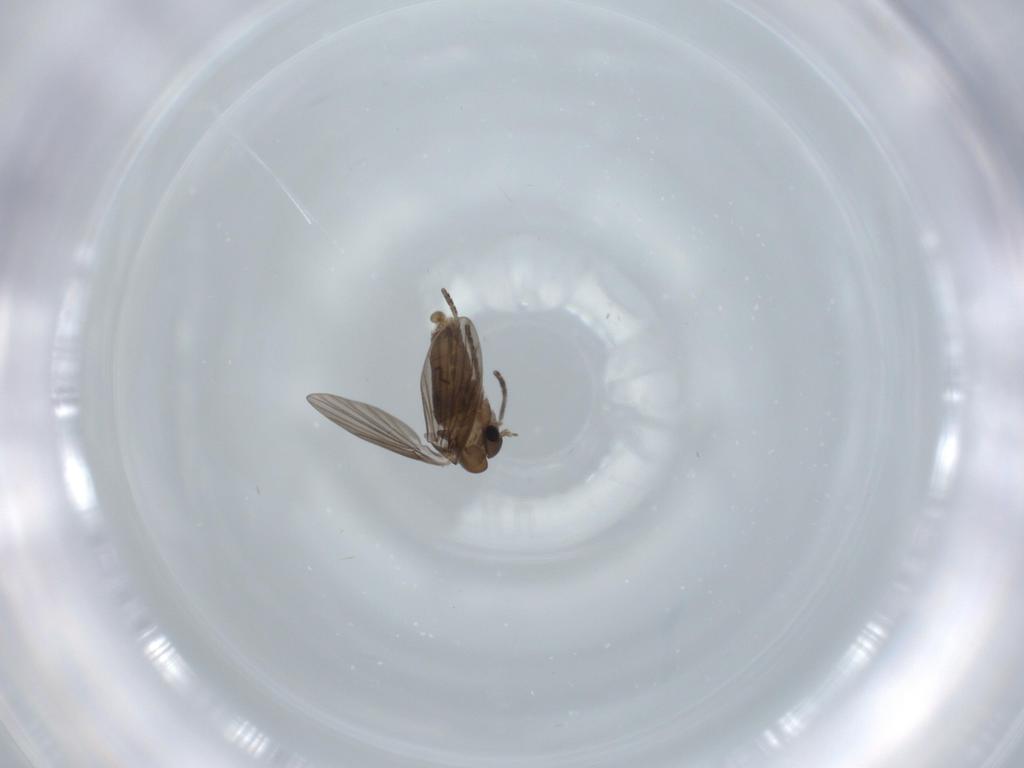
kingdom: Animalia
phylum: Arthropoda
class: Insecta
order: Diptera
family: Psychodidae
